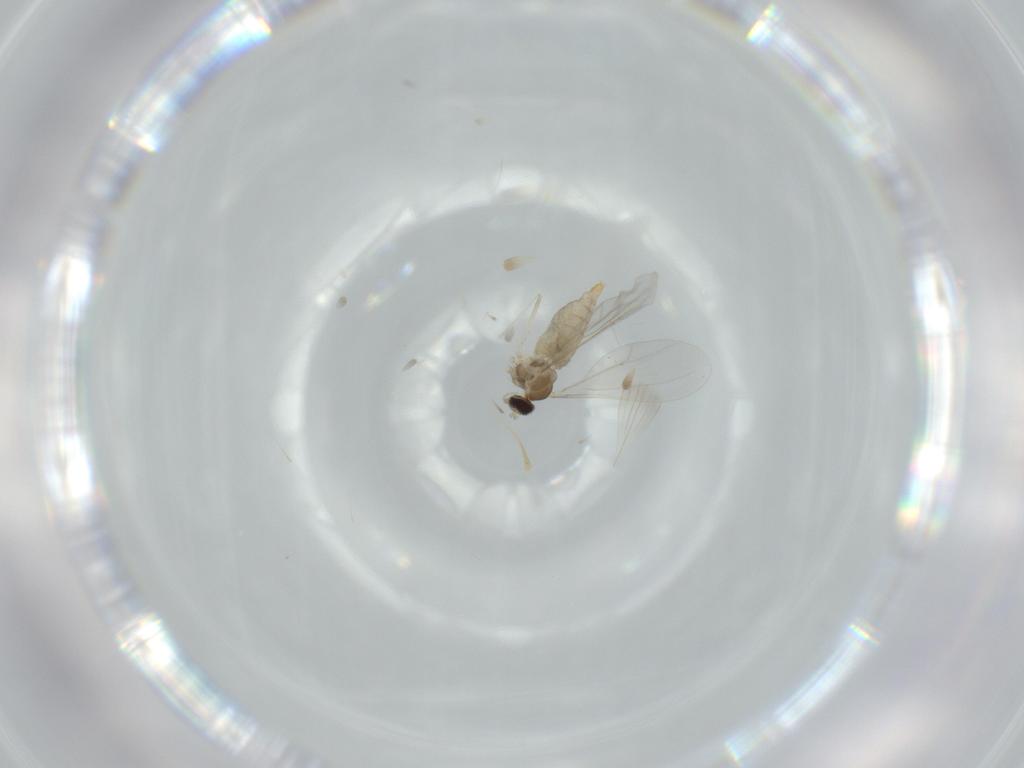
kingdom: Animalia
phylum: Arthropoda
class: Insecta
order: Diptera
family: Cecidomyiidae
